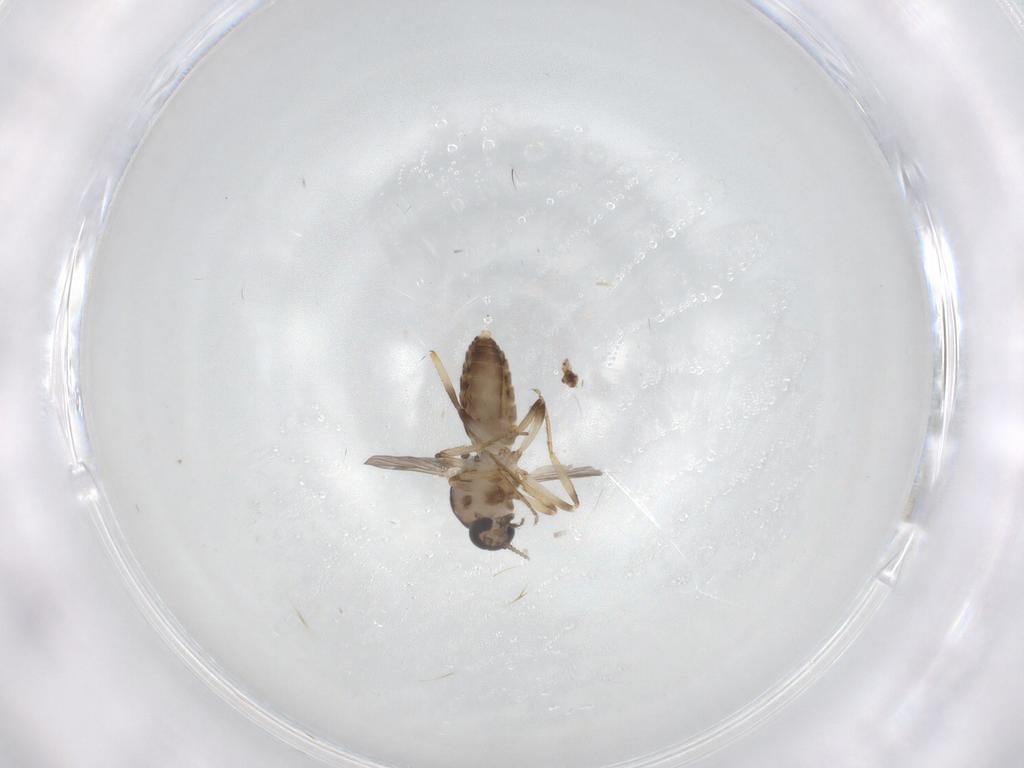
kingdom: Animalia
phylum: Arthropoda
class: Insecta
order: Diptera
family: Ceratopogonidae
